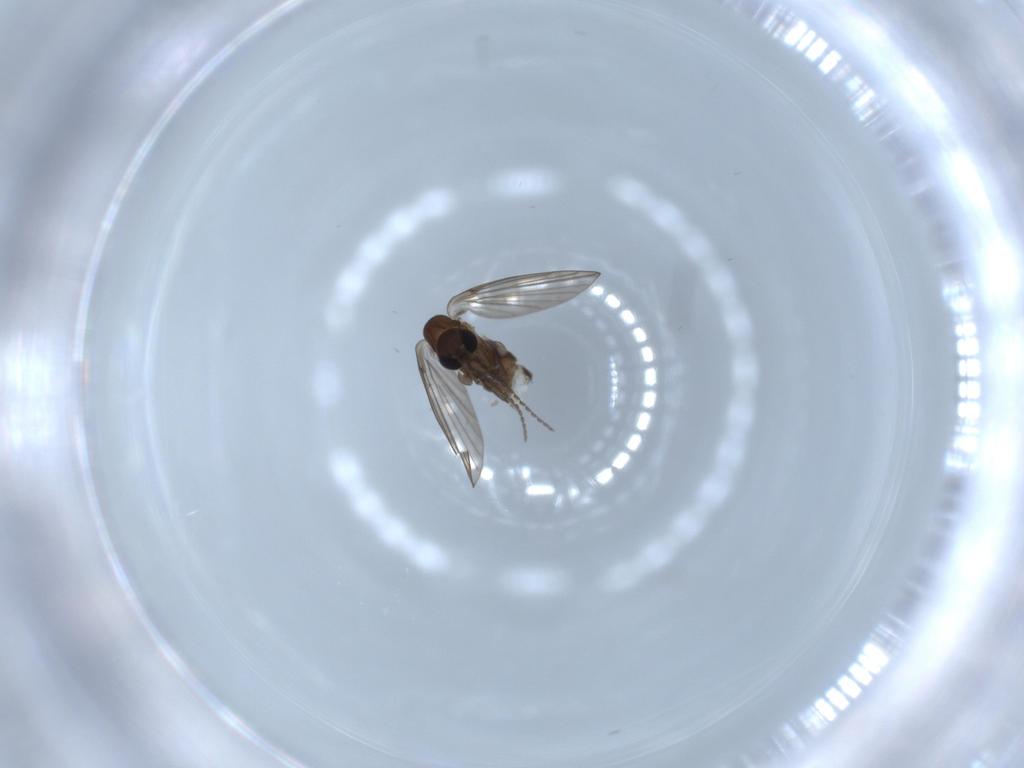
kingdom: Animalia
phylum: Arthropoda
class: Insecta
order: Diptera
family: Psychodidae
